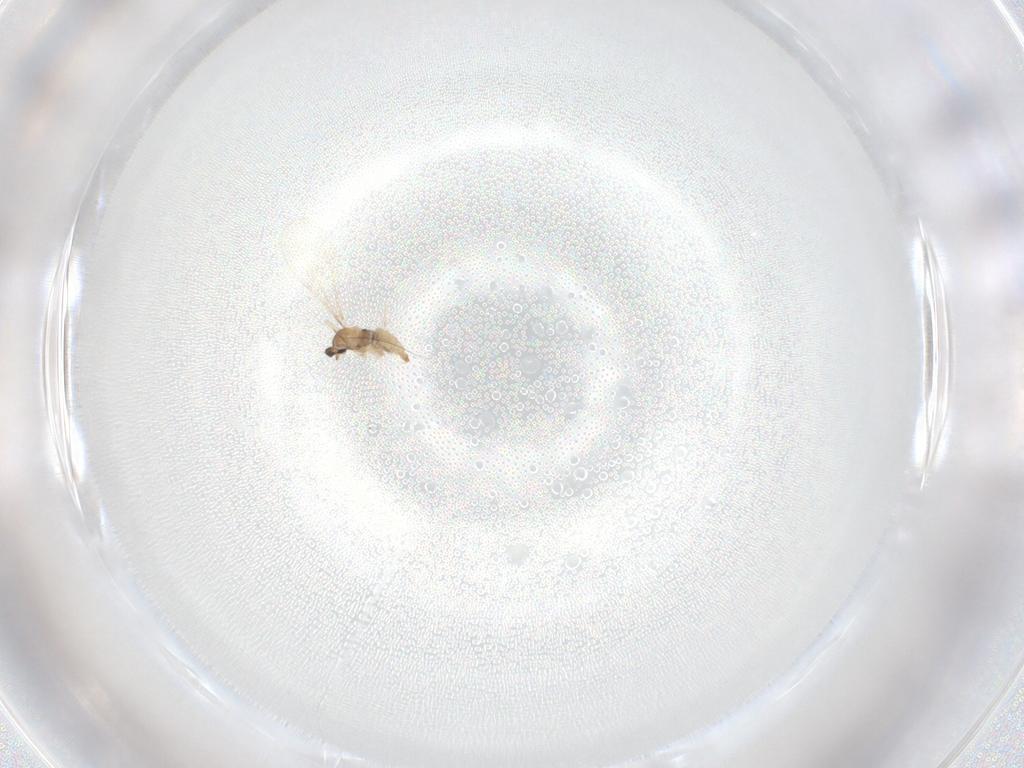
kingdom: Animalia
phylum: Arthropoda
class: Insecta
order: Diptera
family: Cecidomyiidae
